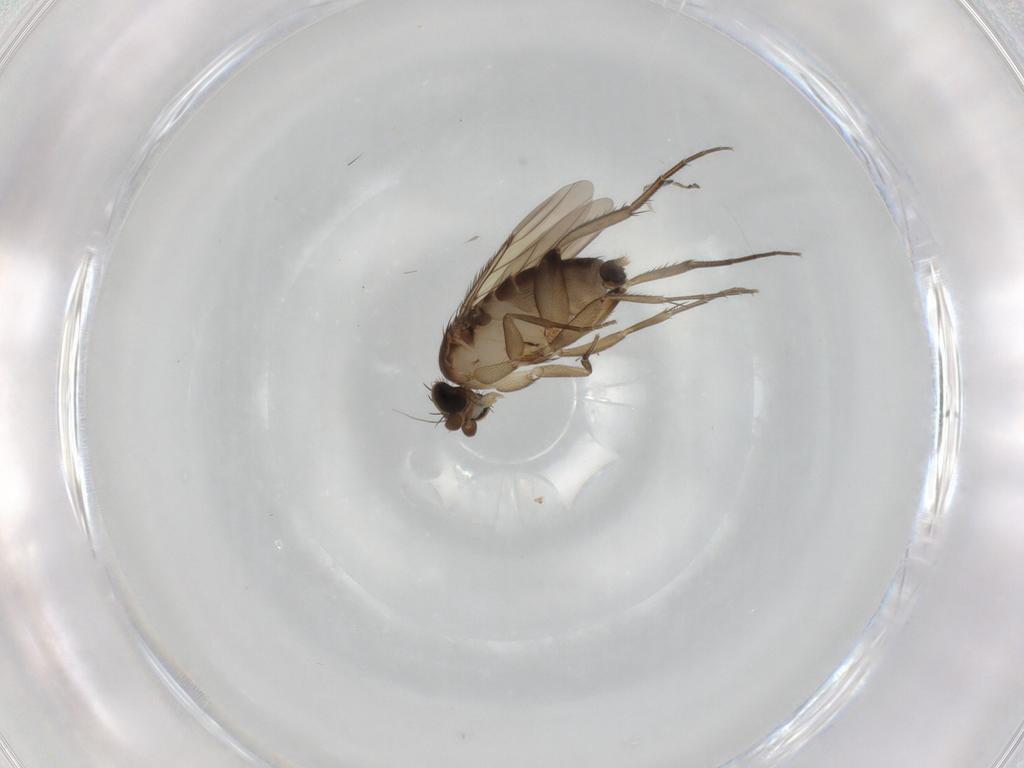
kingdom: Animalia
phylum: Arthropoda
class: Insecta
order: Diptera
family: Phoridae
